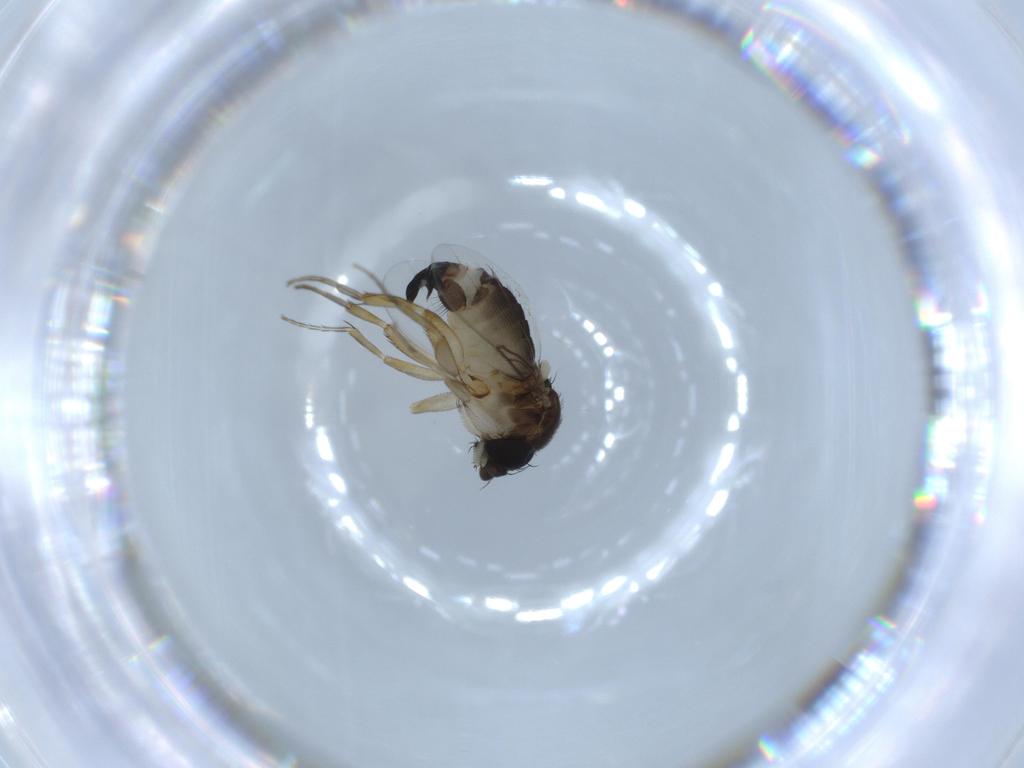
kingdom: Animalia
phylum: Arthropoda
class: Insecta
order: Diptera
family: Phoridae
